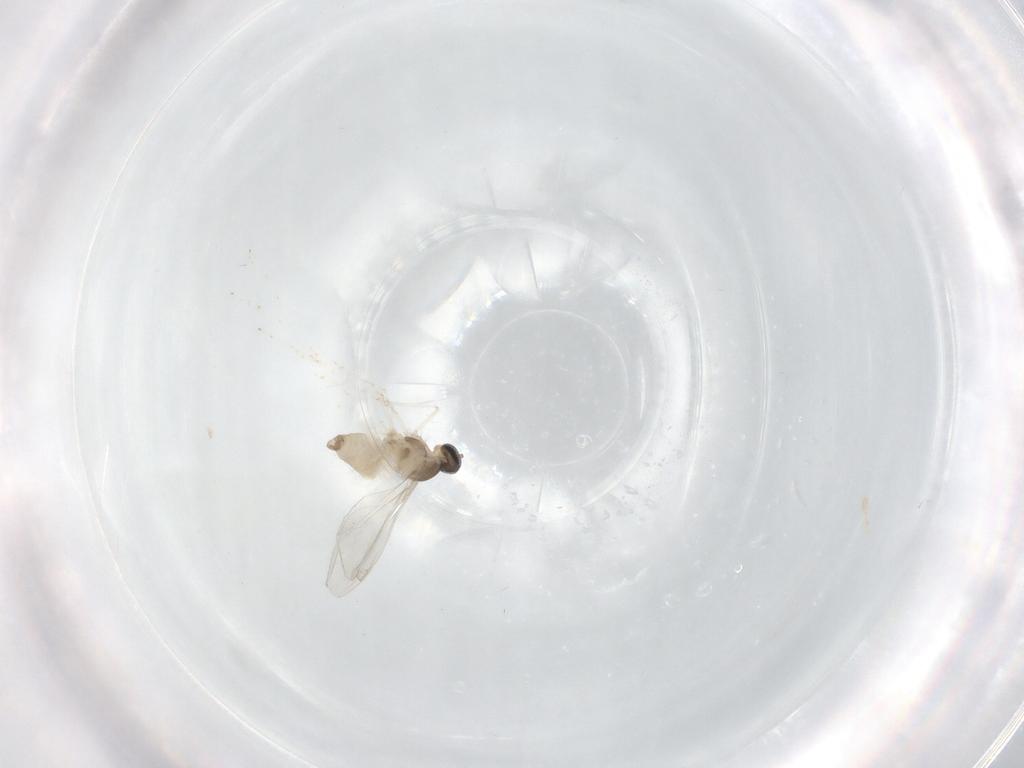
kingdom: Animalia
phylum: Arthropoda
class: Insecta
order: Diptera
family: Cecidomyiidae
